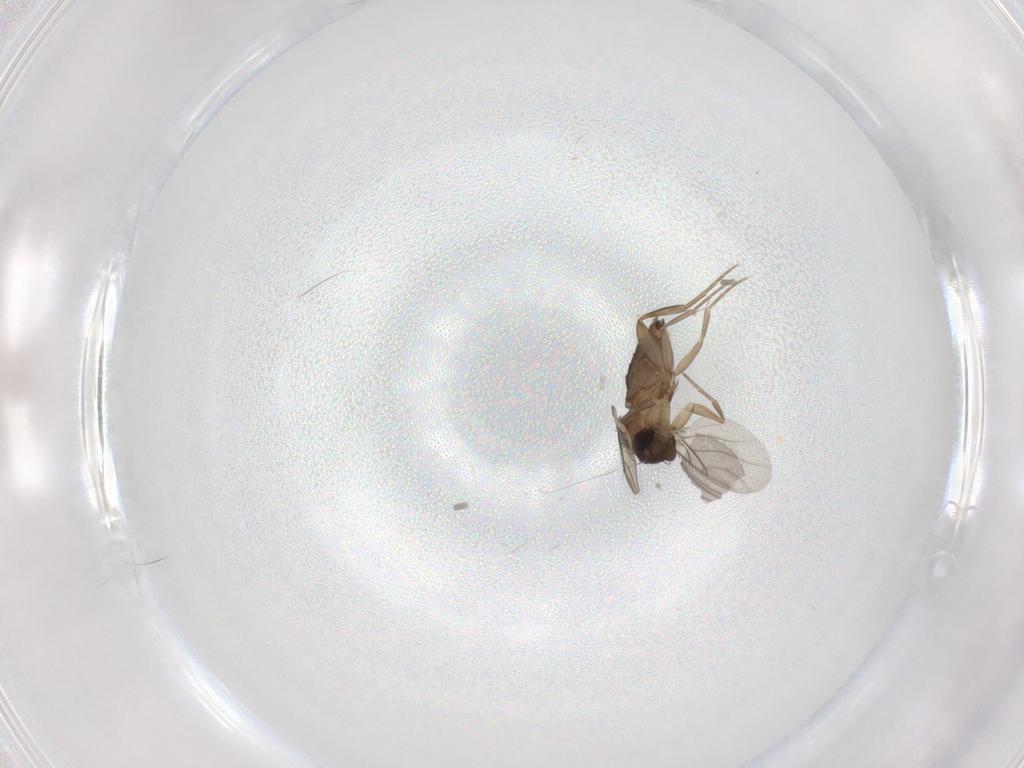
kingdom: Animalia
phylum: Arthropoda
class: Insecta
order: Diptera
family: Phoridae
